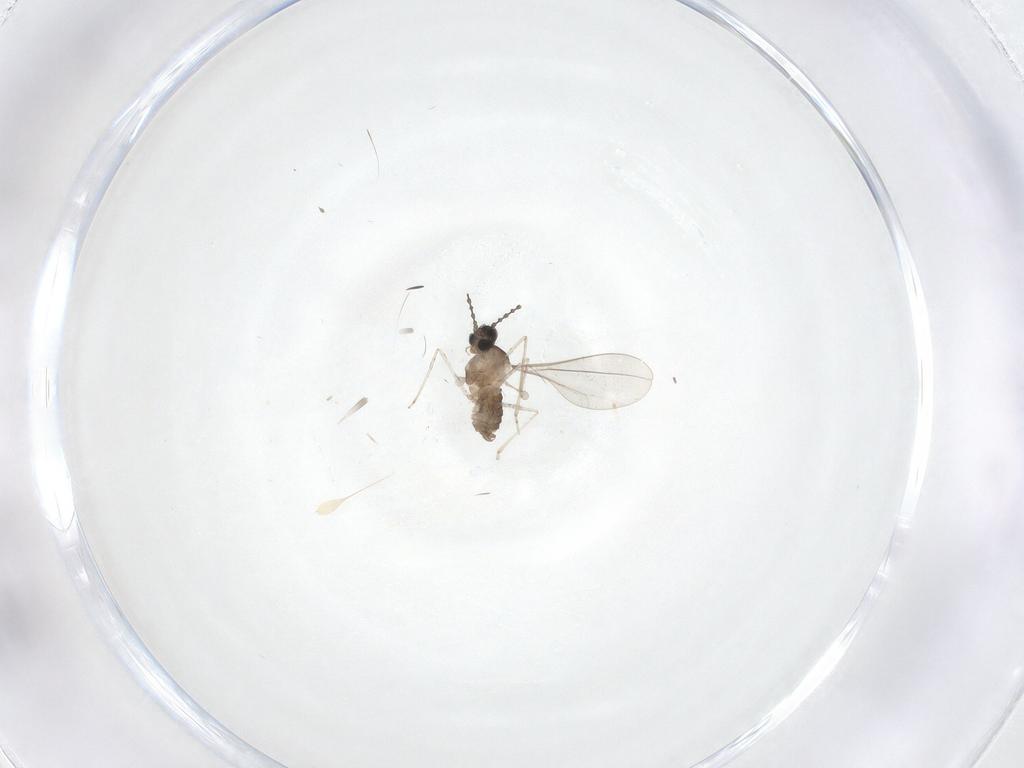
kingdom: Animalia
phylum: Arthropoda
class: Insecta
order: Diptera
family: Cecidomyiidae
